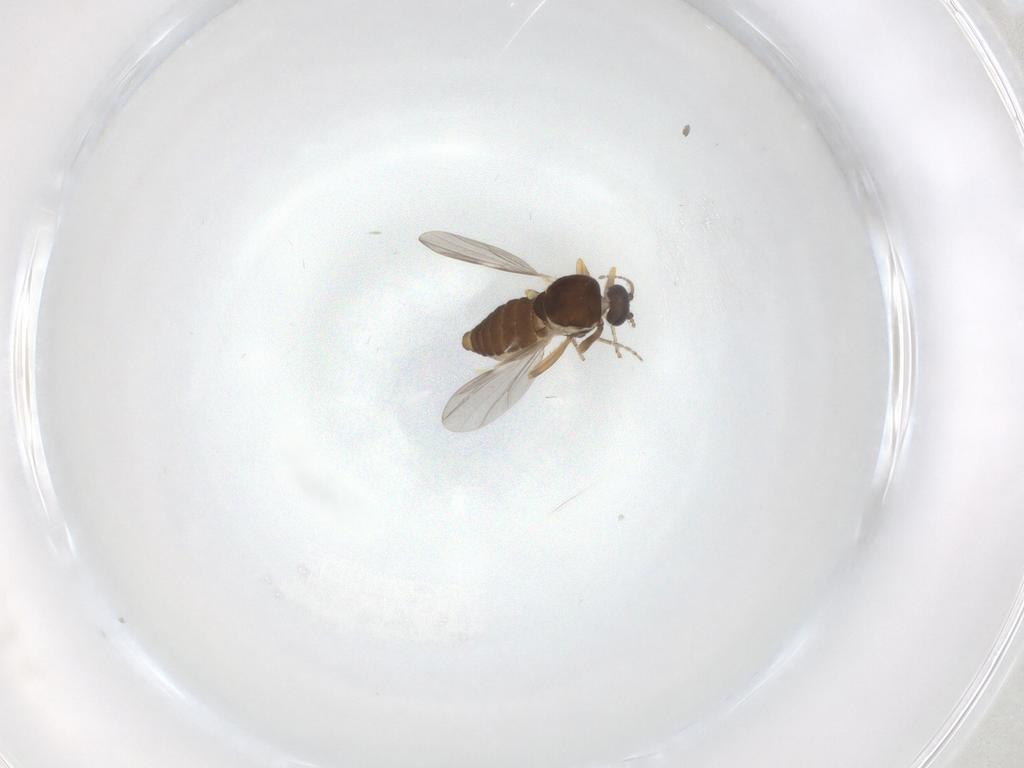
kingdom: Animalia
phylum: Arthropoda
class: Insecta
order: Diptera
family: Ceratopogonidae
